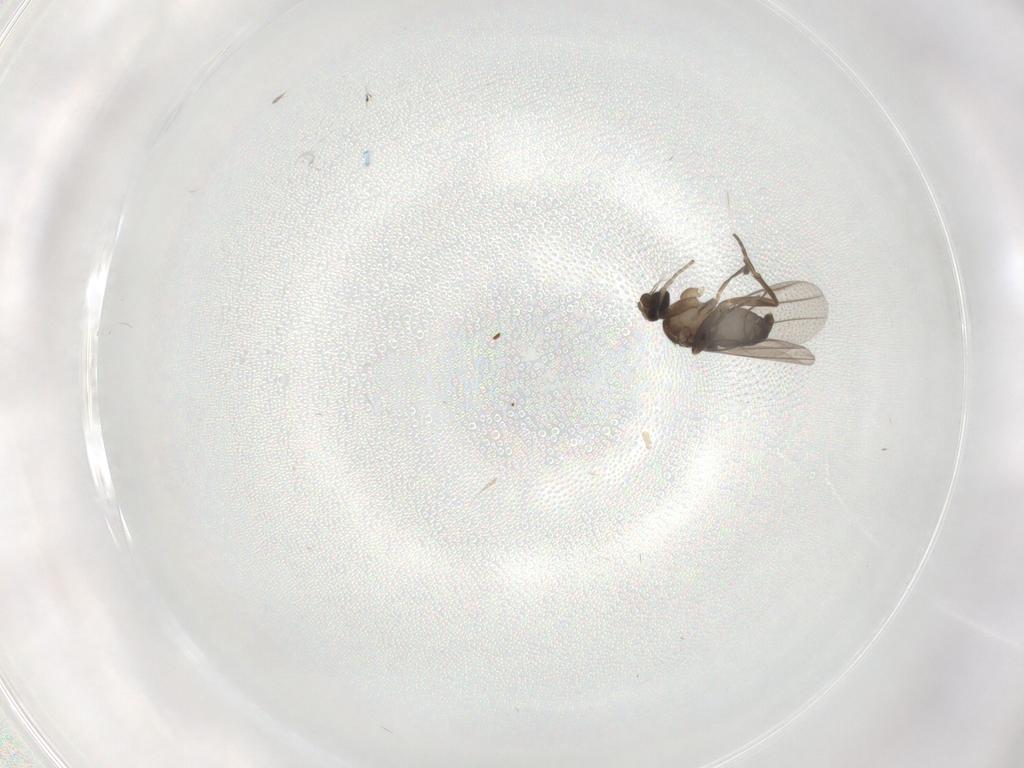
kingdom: Animalia
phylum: Arthropoda
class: Insecta
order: Diptera
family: Phoridae
